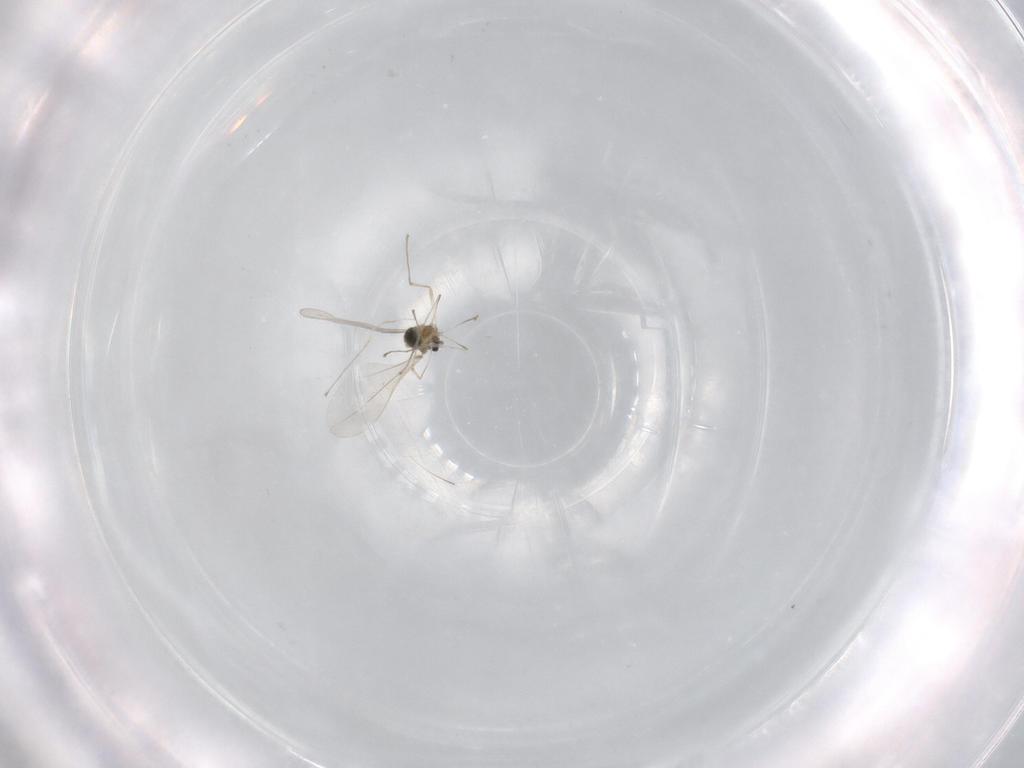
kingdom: Animalia
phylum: Arthropoda
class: Insecta
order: Diptera
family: Cecidomyiidae
